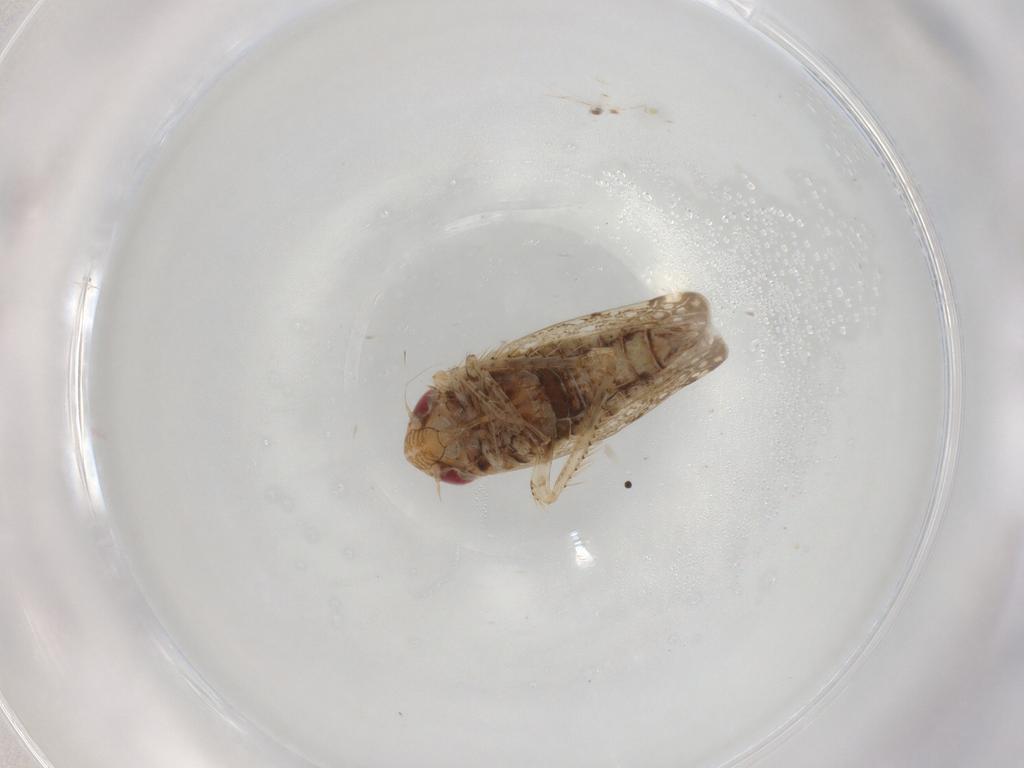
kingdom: Animalia
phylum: Arthropoda
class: Insecta
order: Hemiptera
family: Cicadellidae
